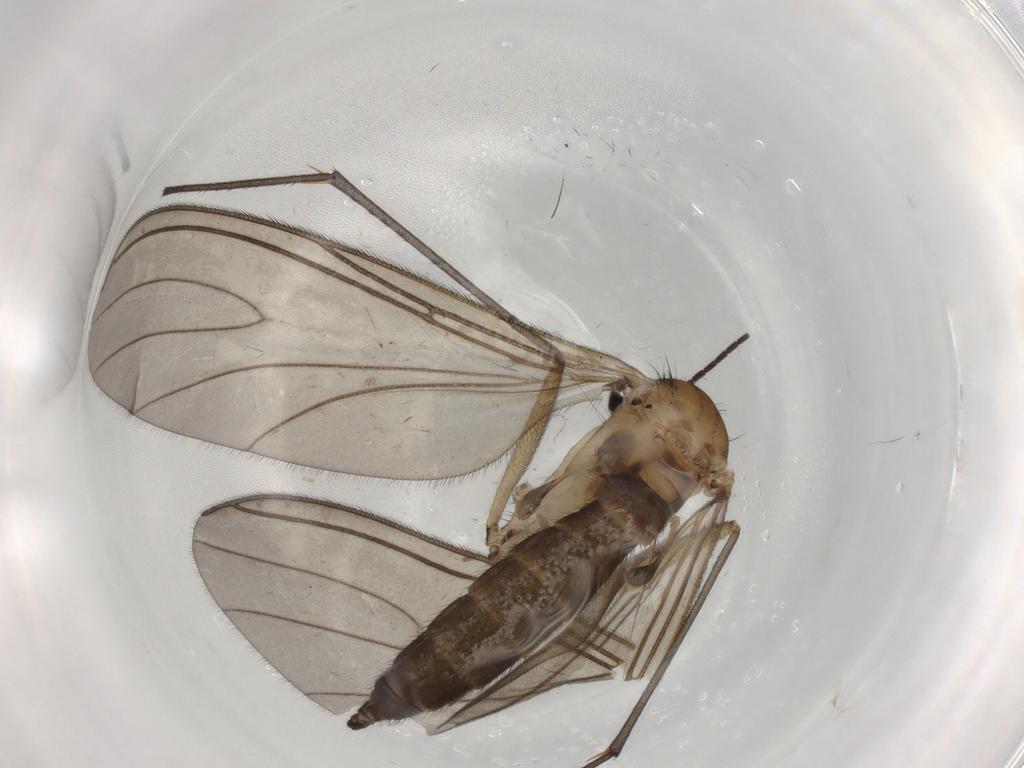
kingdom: Animalia
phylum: Arthropoda
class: Insecta
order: Diptera
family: Sciaridae
